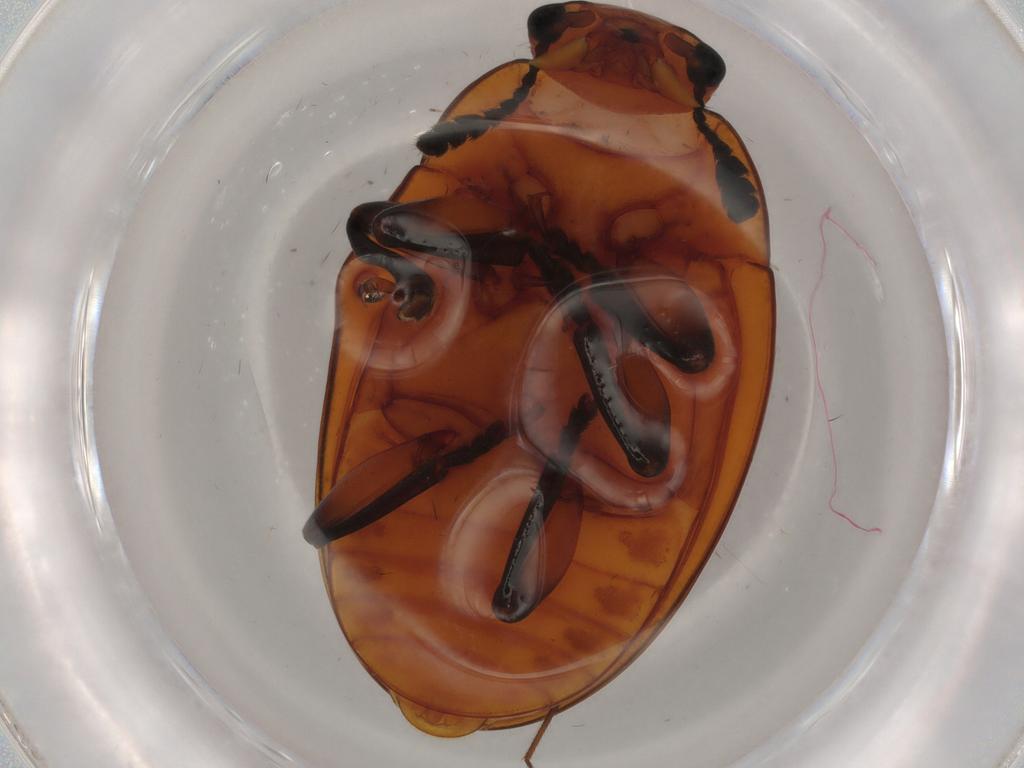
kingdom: Animalia
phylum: Arthropoda
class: Insecta
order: Coleoptera
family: Erotylidae
